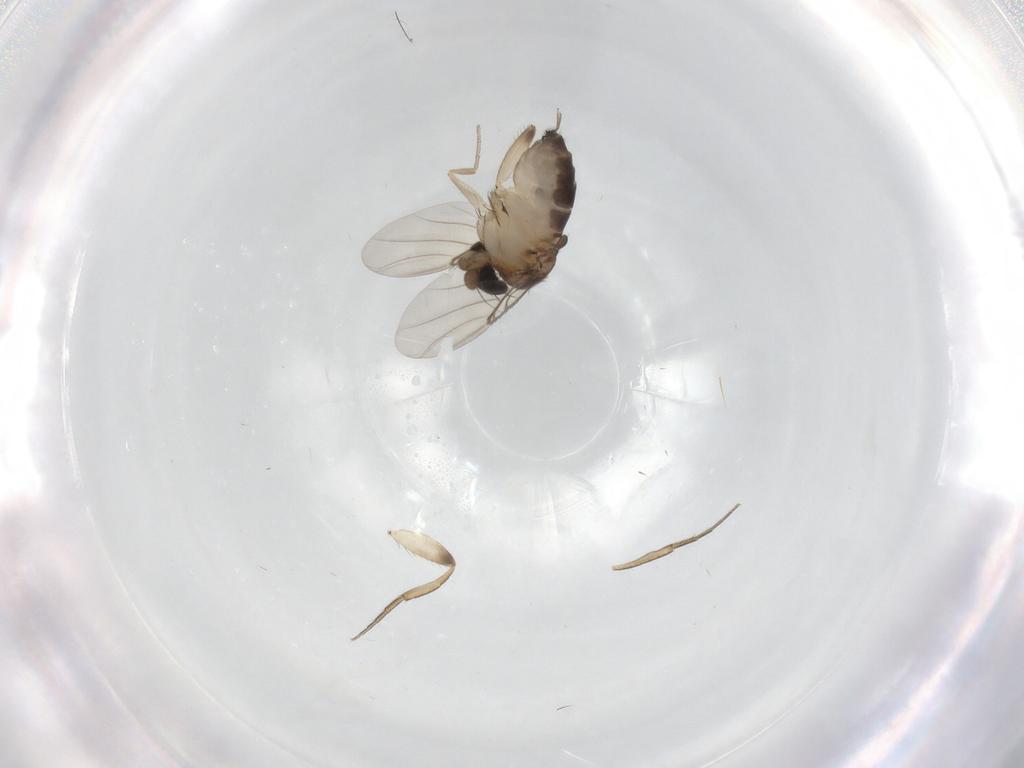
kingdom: Animalia
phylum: Arthropoda
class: Insecta
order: Diptera
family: Phoridae
